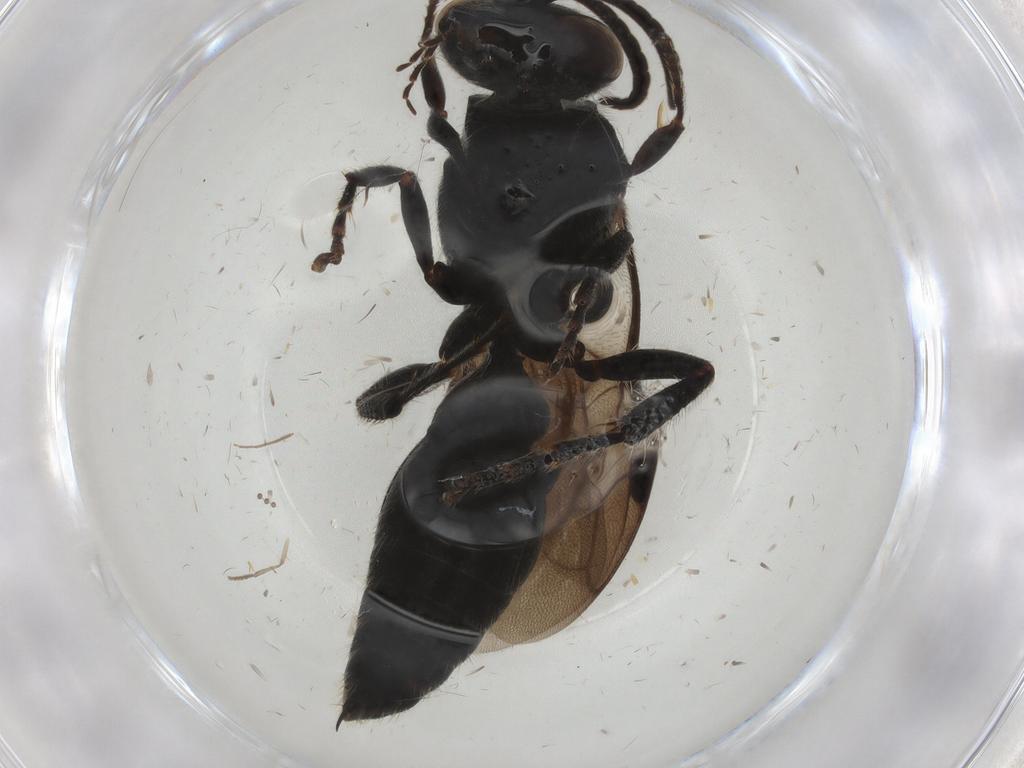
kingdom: Animalia
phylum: Arthropoda
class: Insecta
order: Hymenoptera
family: Tiphiidae
